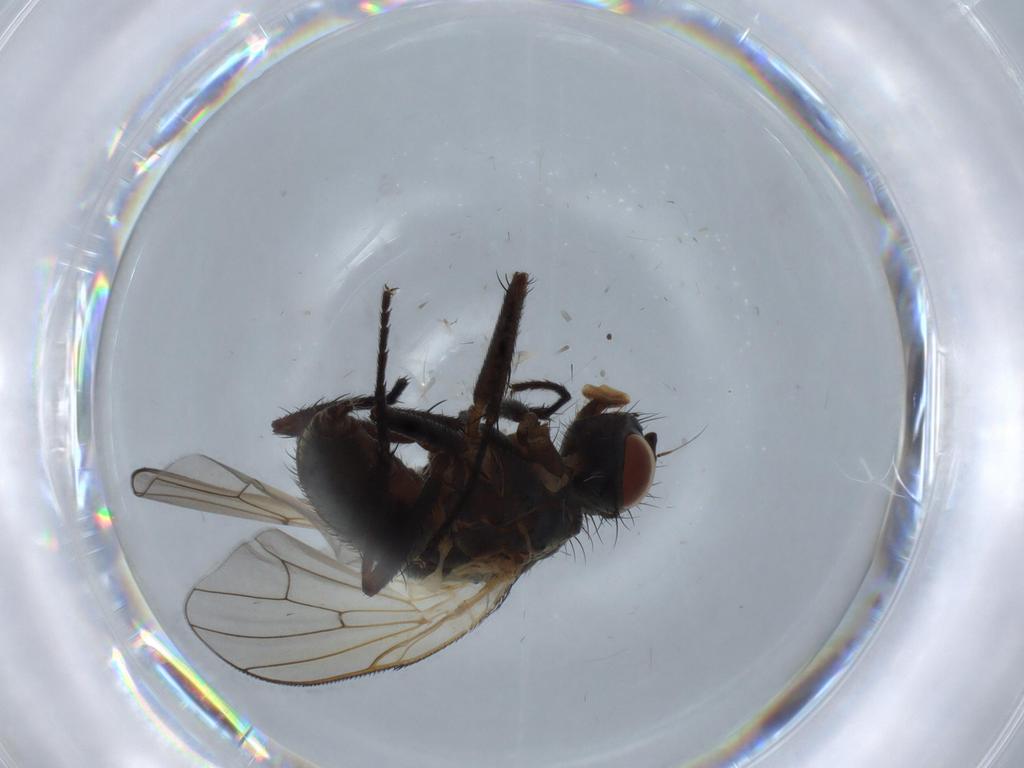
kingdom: Animalia
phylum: Arthropoda
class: Insecta
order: Diptera
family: Anthomyiidae
